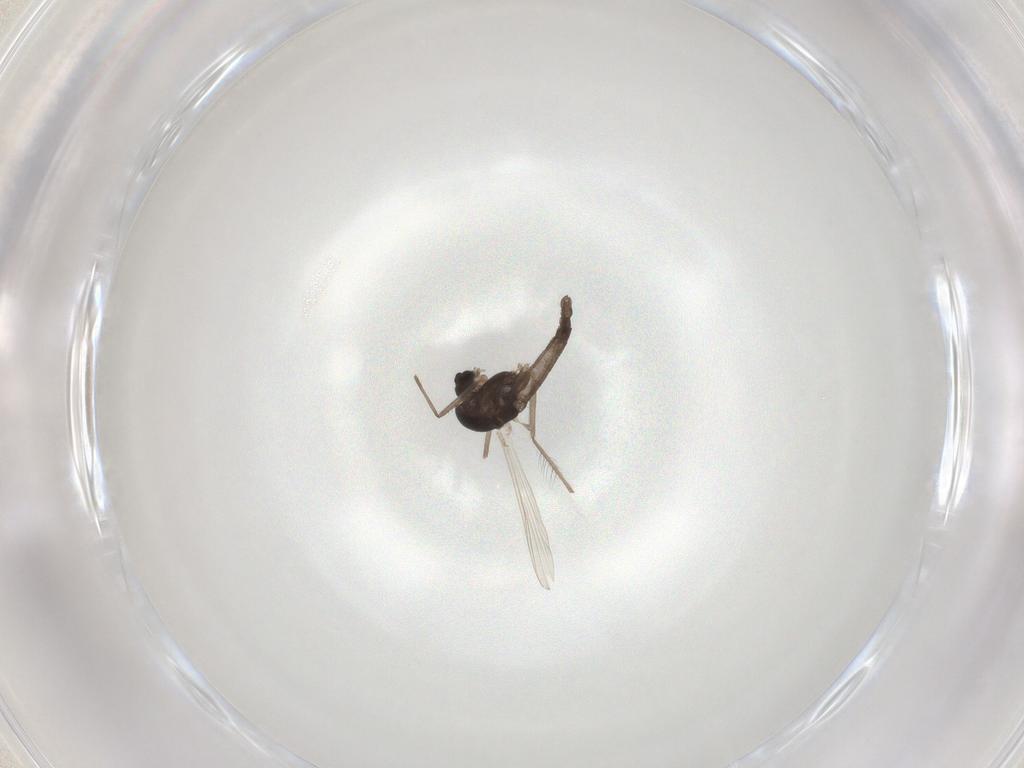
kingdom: Animalia
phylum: Arthropoda
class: Insecta
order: Diptera
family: Chironomidae
